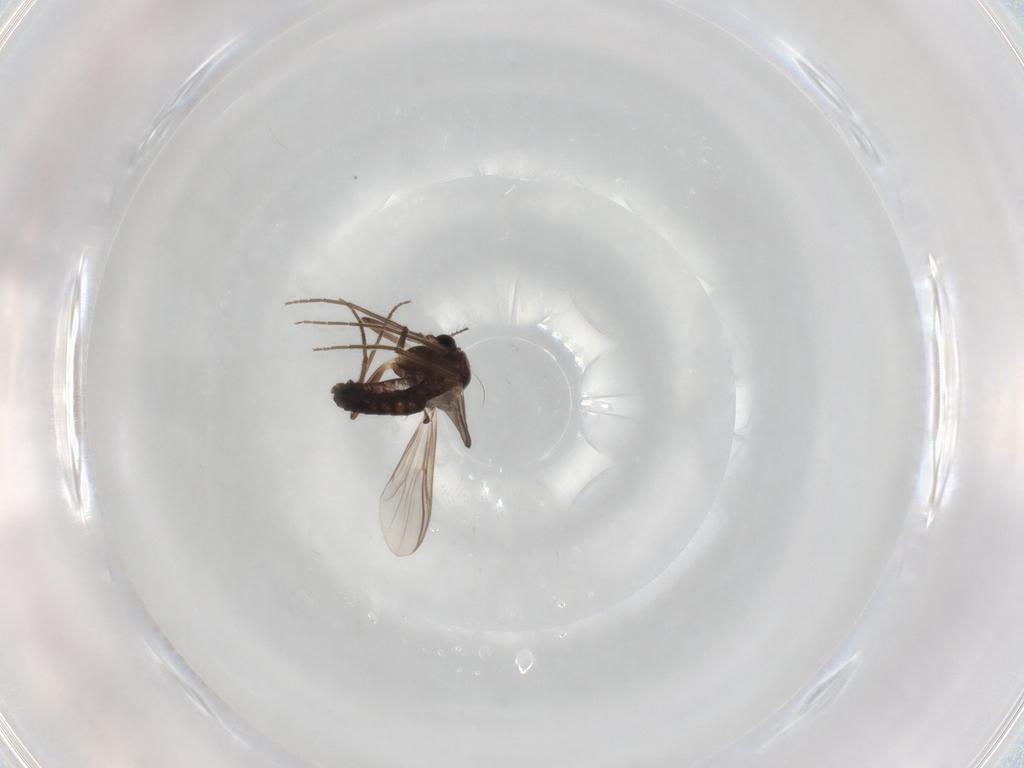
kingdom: Animalia
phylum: Arthropoda
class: Insecta
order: Diptera
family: Chironomidae
